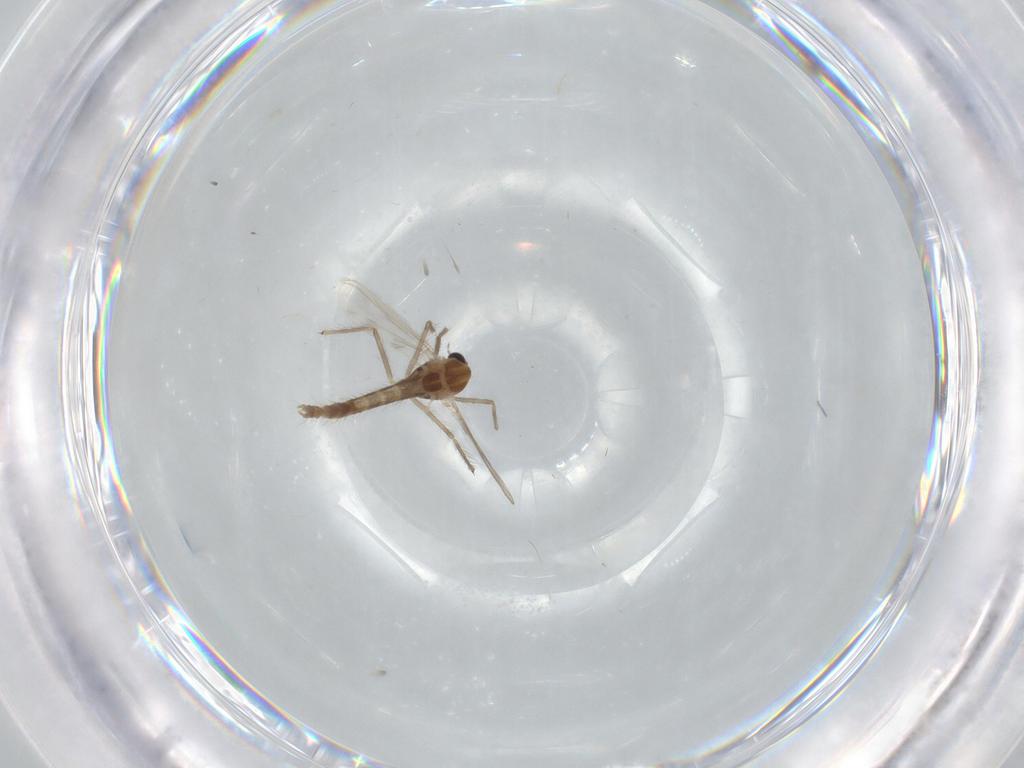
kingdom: Animalia
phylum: Arthropoda
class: Insecta
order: Diptera
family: Chironomidae
